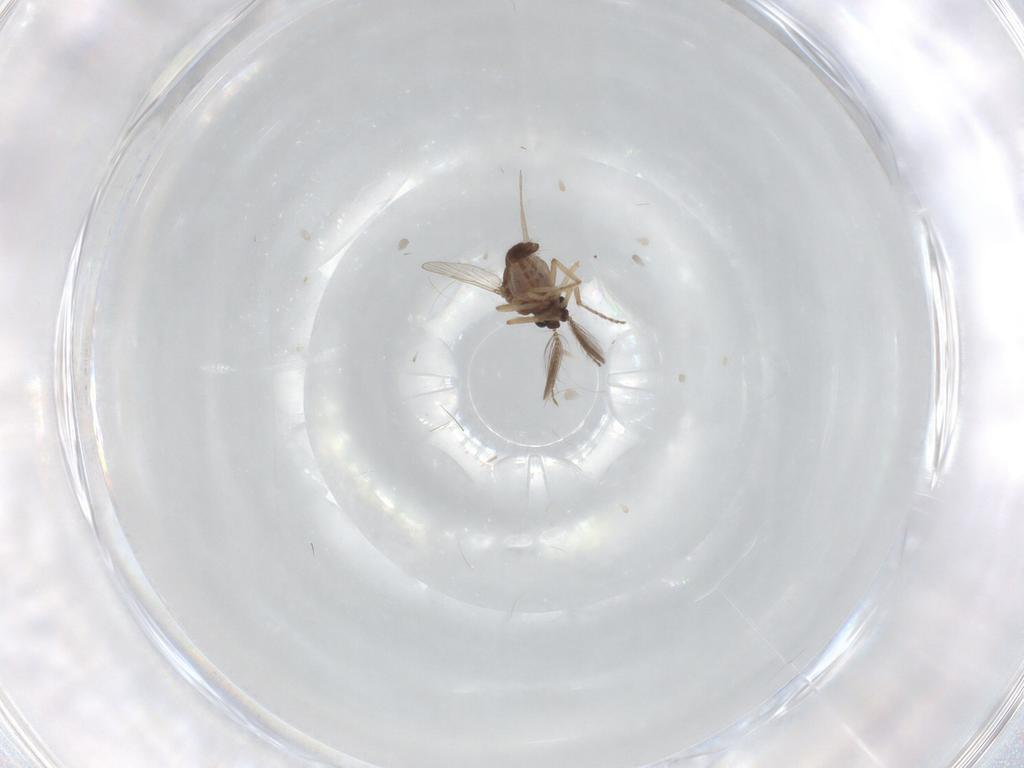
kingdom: Animalia
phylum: Arthropoda
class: Insecta
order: Diptera
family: Ceratopogonidae
